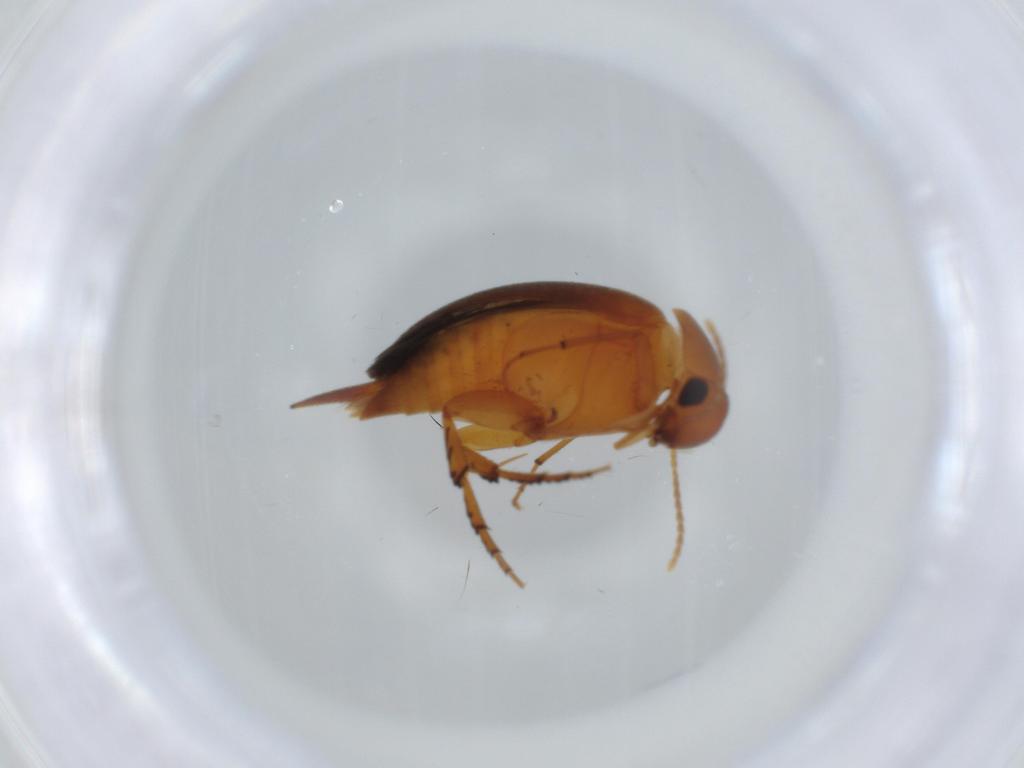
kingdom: Animalia
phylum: Arthropoda
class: Insecta
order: Coleoptera
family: Mordellidae
